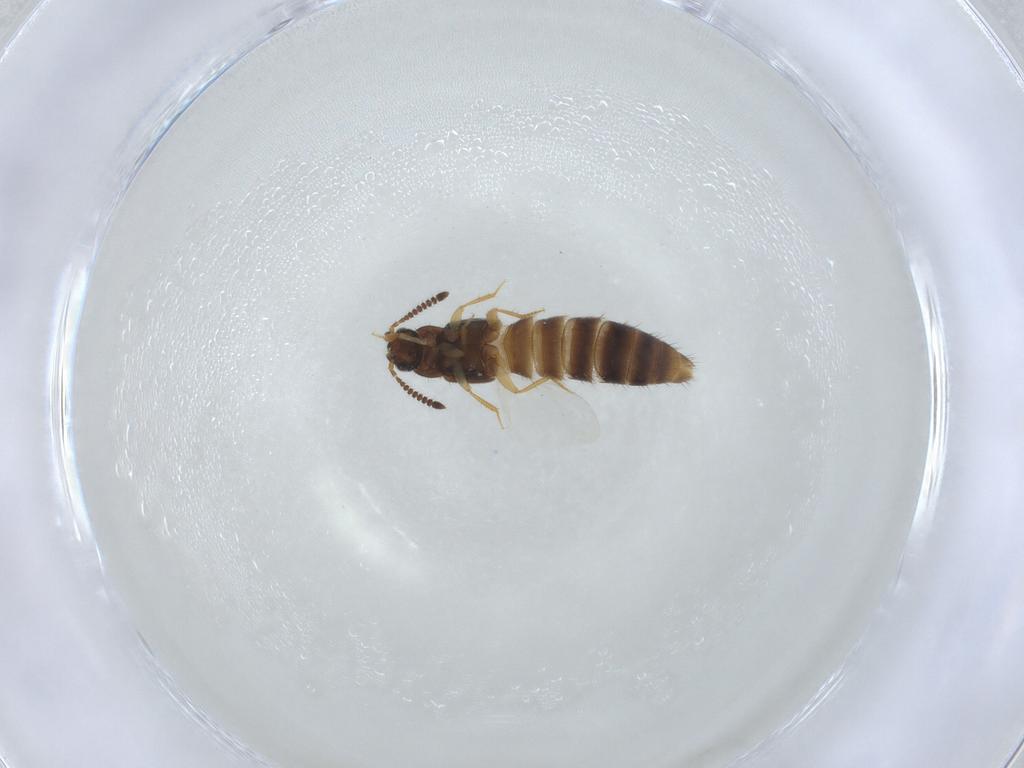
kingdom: Animalia
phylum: Arthropoda
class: Insecta
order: Coleoptera
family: Staphylinidae
